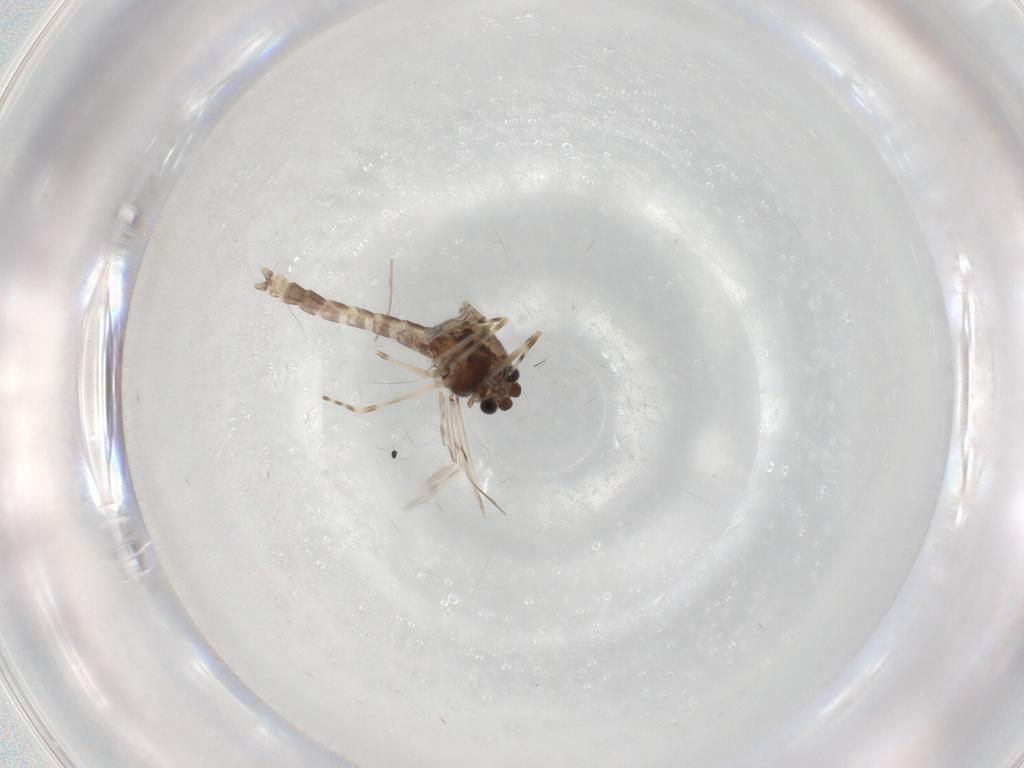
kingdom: Animalia
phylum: Arthropoda
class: Insecta
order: Diptera
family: Chironomidae
